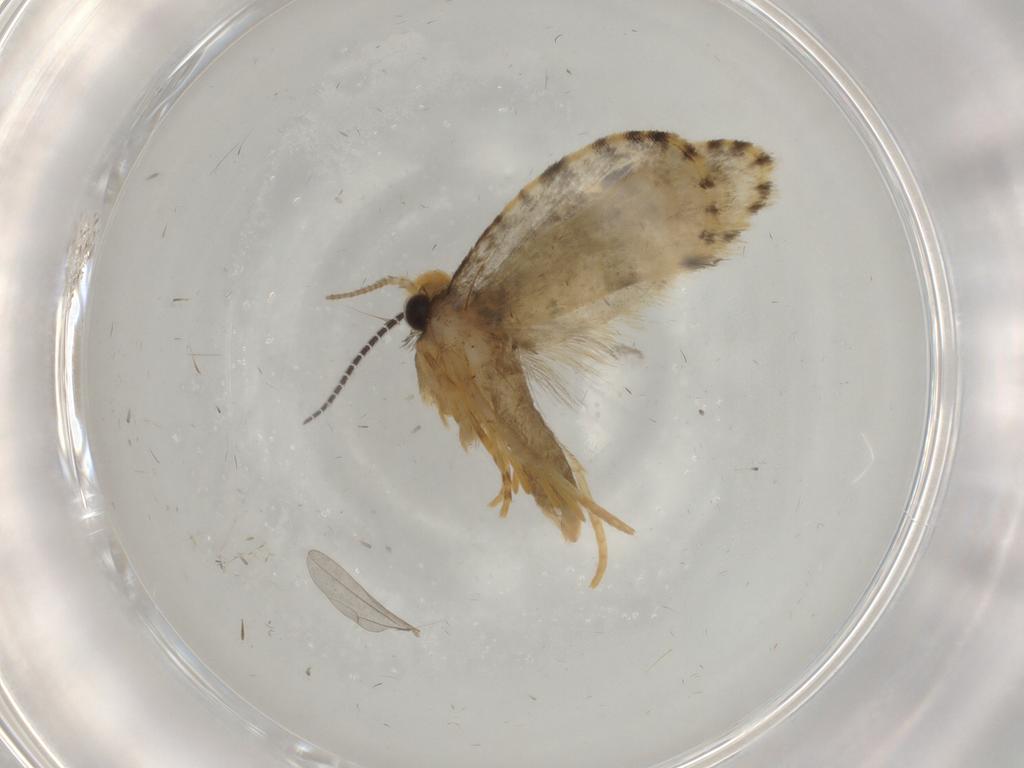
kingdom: Animalia
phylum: Arthropoda
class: Insecta
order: Lepidoptera
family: Psychidae
